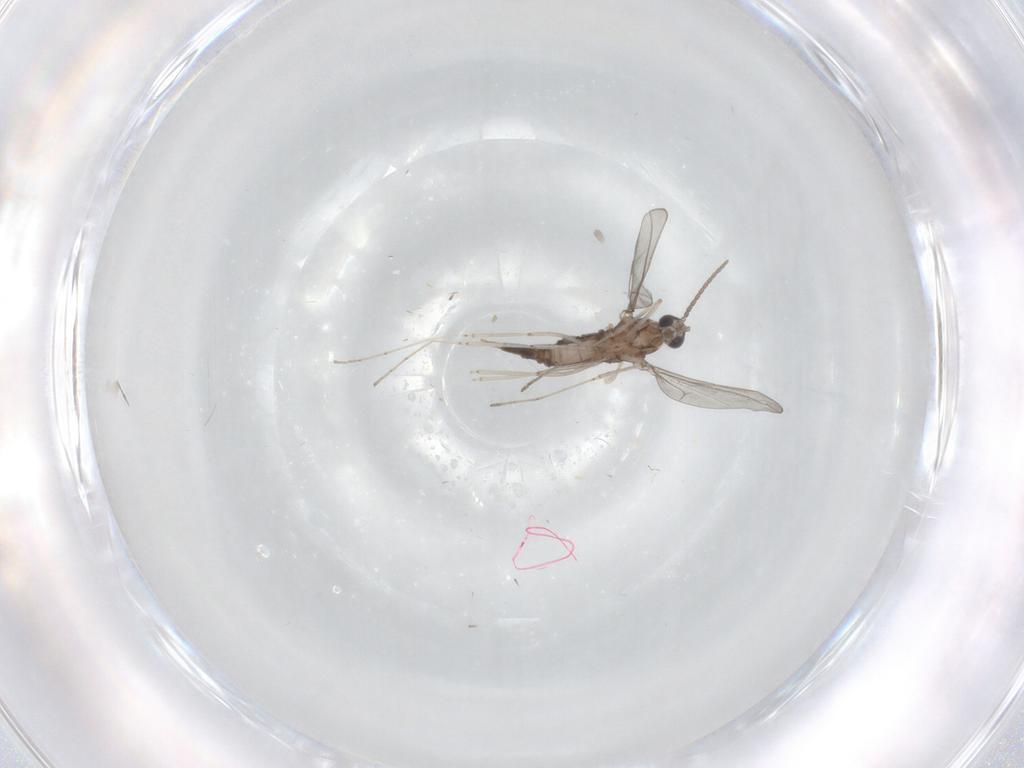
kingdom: Animalia
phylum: Arthropoda
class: Insecta
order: Diptera
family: Cecidomyiidae
